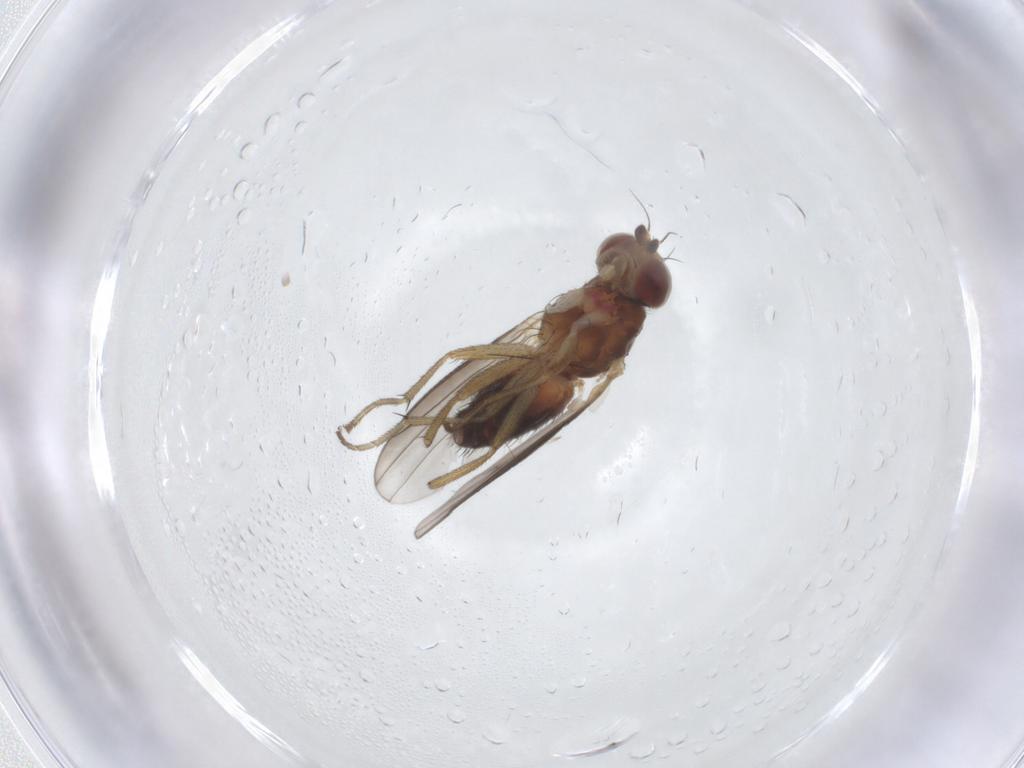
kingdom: Animalia
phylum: Arthropoda
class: Insecta
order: Diptera
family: Heleomyzidae
